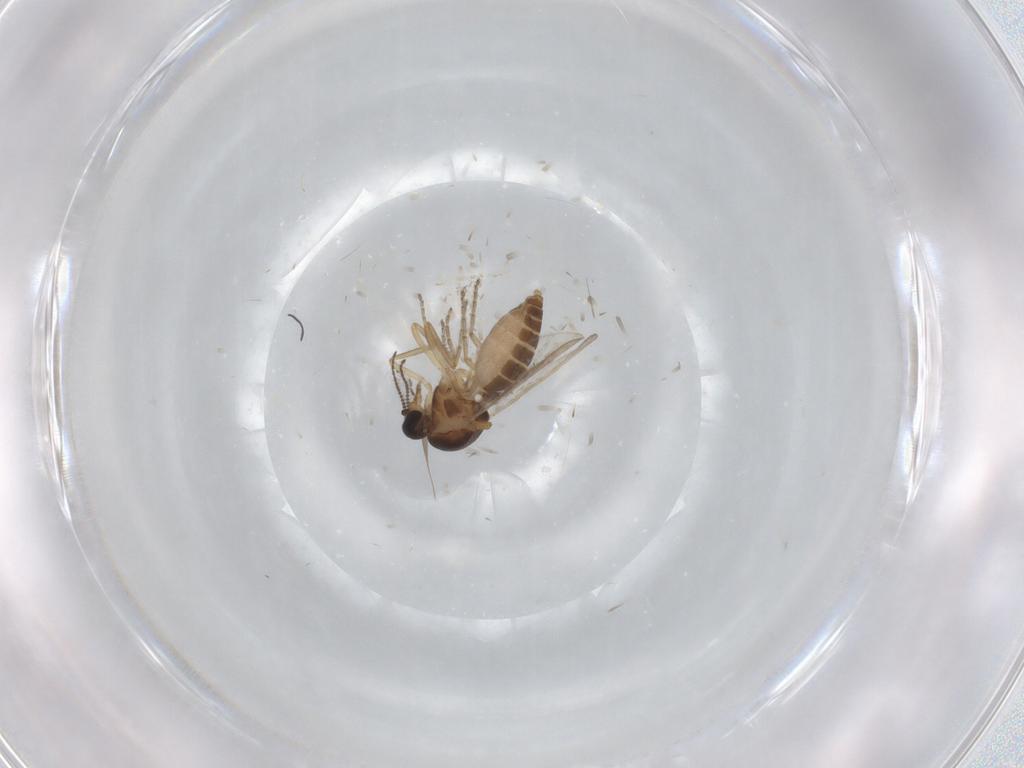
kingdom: Animalia
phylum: Arthropoda
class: Insecta
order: Diptera
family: Ceratopogonidae
